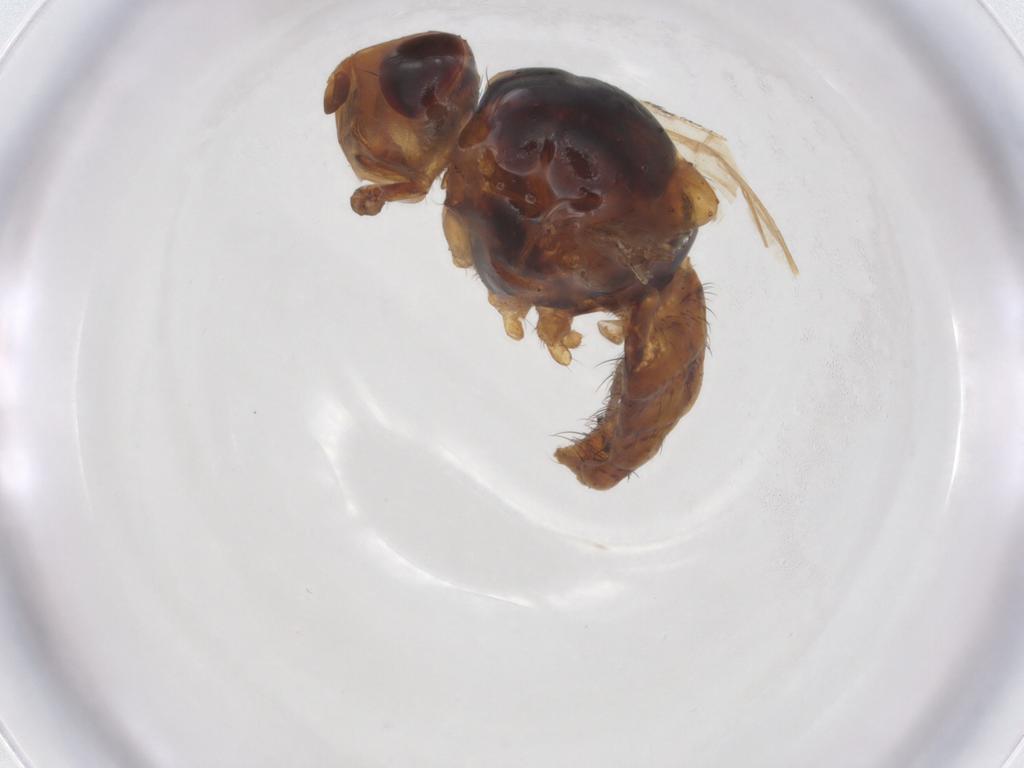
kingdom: Animalia
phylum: Arthropoda
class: Insecta
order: Diptera
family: Anthomyiidae
